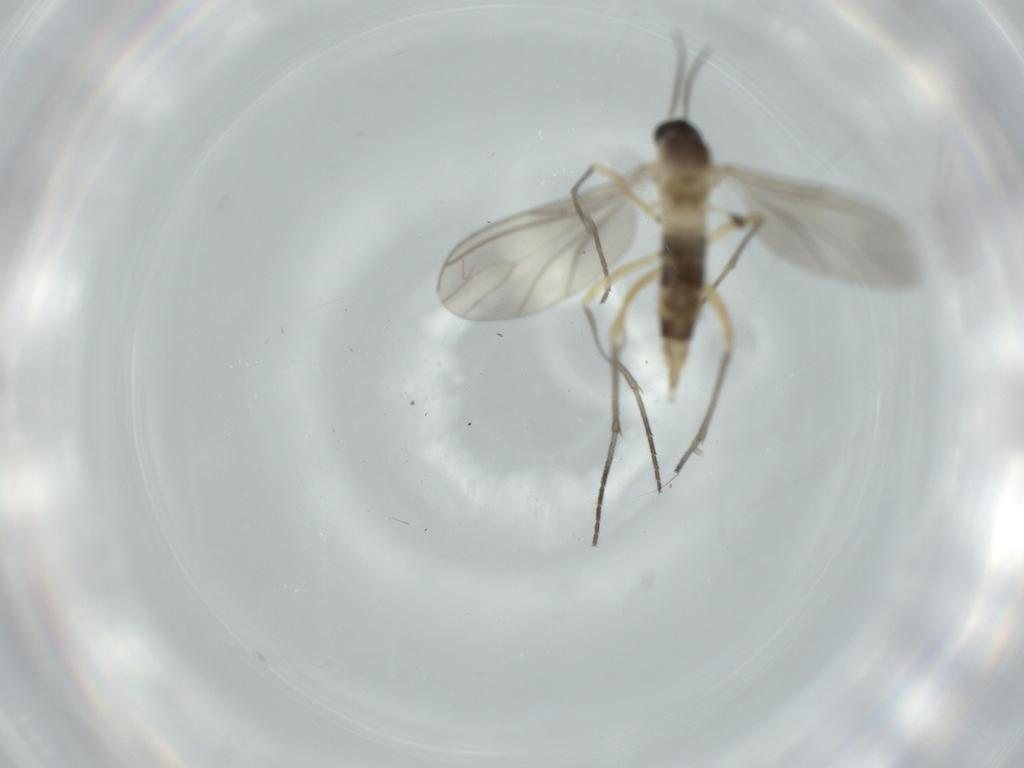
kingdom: Animalia
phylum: Arthropoda
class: Insecta
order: Diptera
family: Sciaridae
